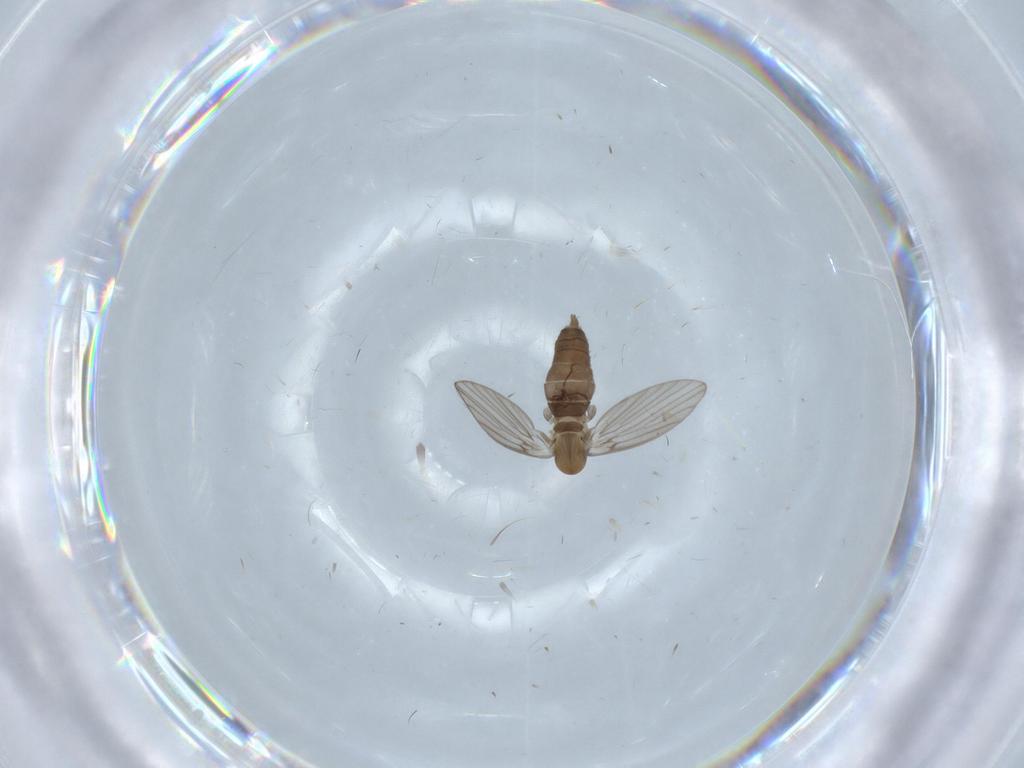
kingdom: Animalia
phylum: Arthropoda
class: Insecta
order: Diptera
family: Psychodidae
